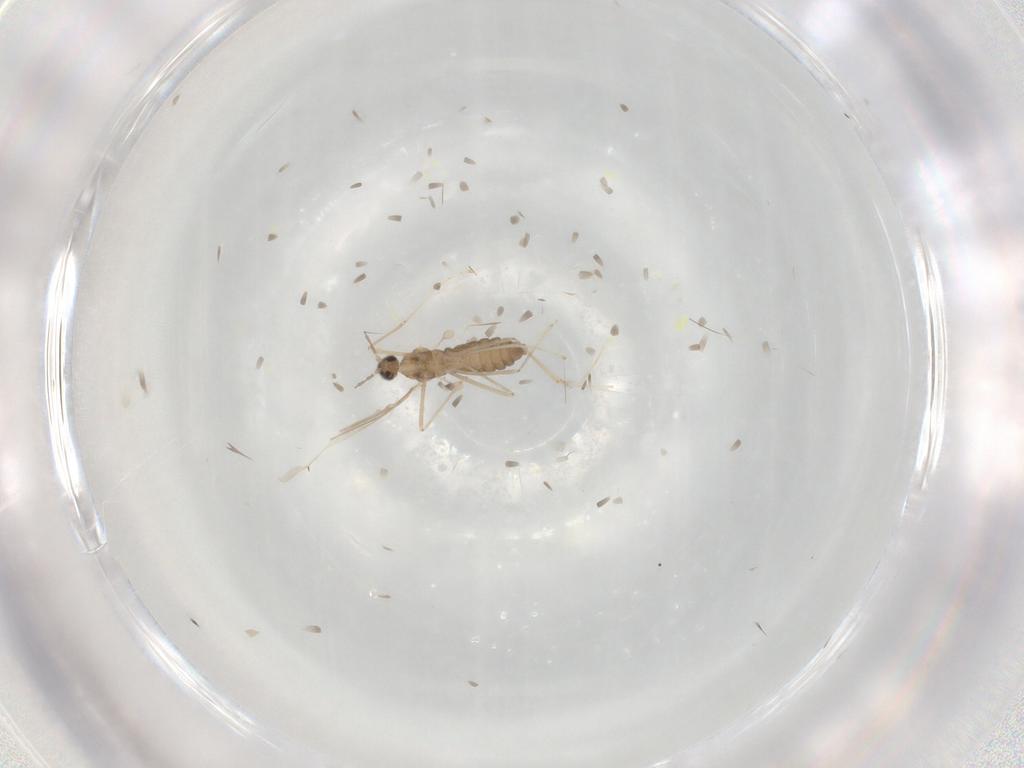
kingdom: Animalia
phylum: Arthropoda
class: Insecta
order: Diptera
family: Cecidomyiidae
